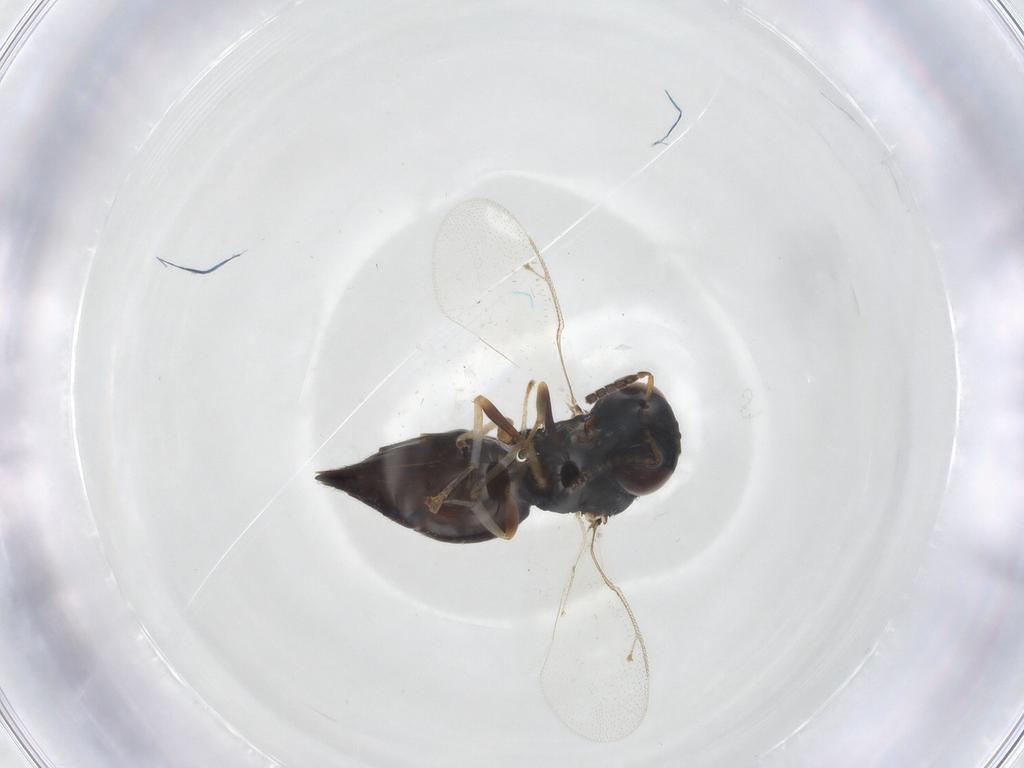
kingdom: Animalia
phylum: Arthropoda
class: Insecta
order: Hymenoptera
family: Pteromalidae
